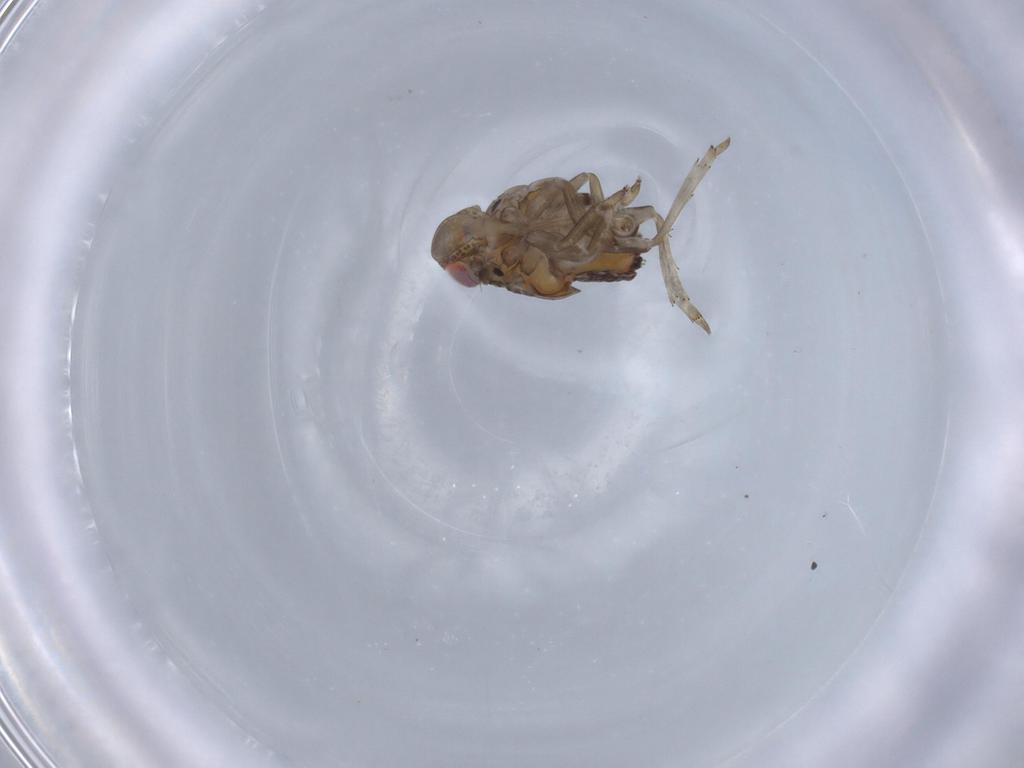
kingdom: Animalia
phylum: Arthropoda
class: Insecta
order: Hemiptera
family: Issidae
